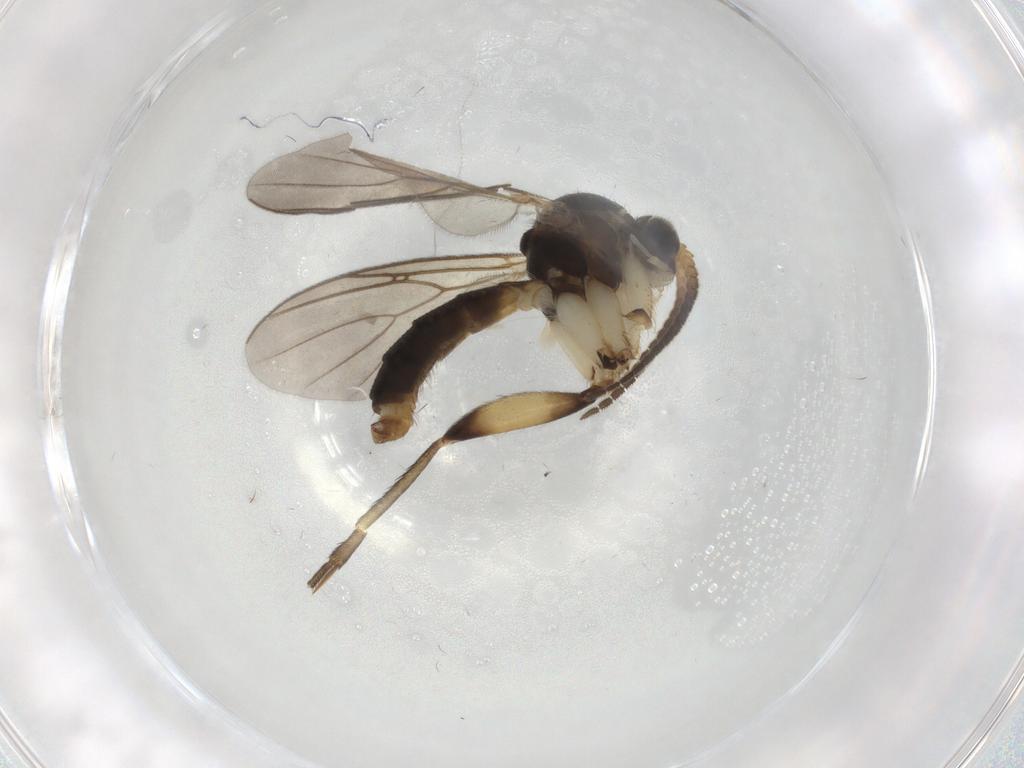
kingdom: Animalia
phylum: Arthropoda
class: Insecta
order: Diptera
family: Mycetophilidae
